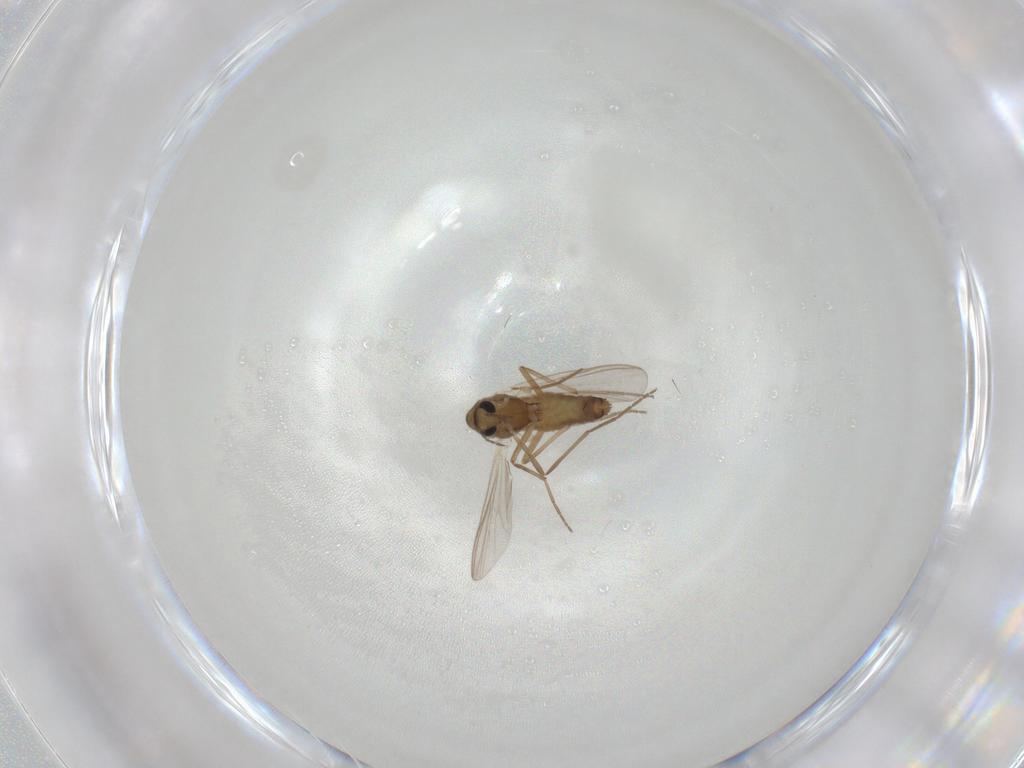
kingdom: Animalia
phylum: Arthropoda
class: Insecta
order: Diptera
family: Chironomidae
